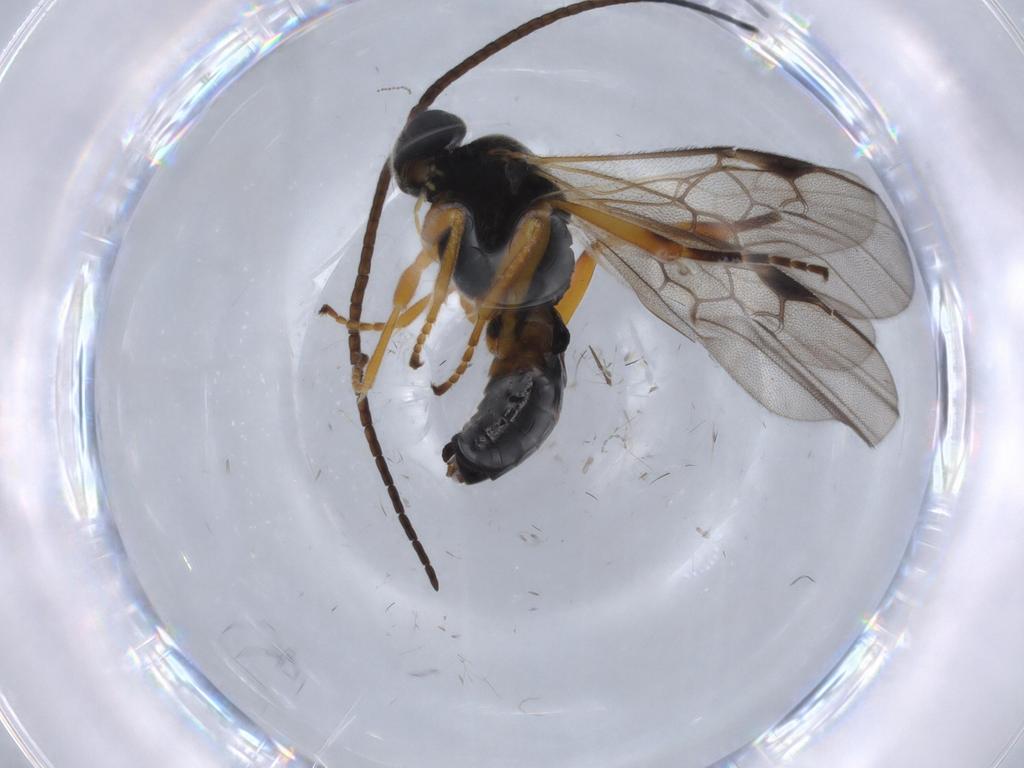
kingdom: Animalia
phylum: Arthropoda
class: Insecta
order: Hymenoptera
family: Braconidae
